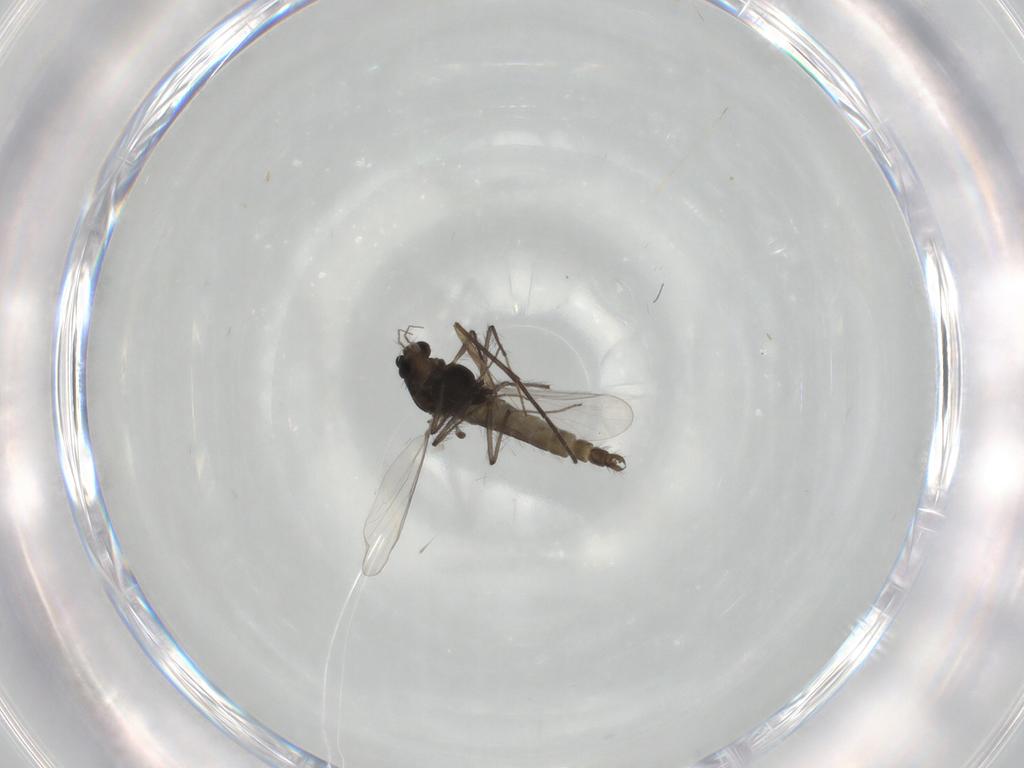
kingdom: Animalia
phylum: Arthropoda
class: Insecta
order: Diptera
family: Chironomidae
